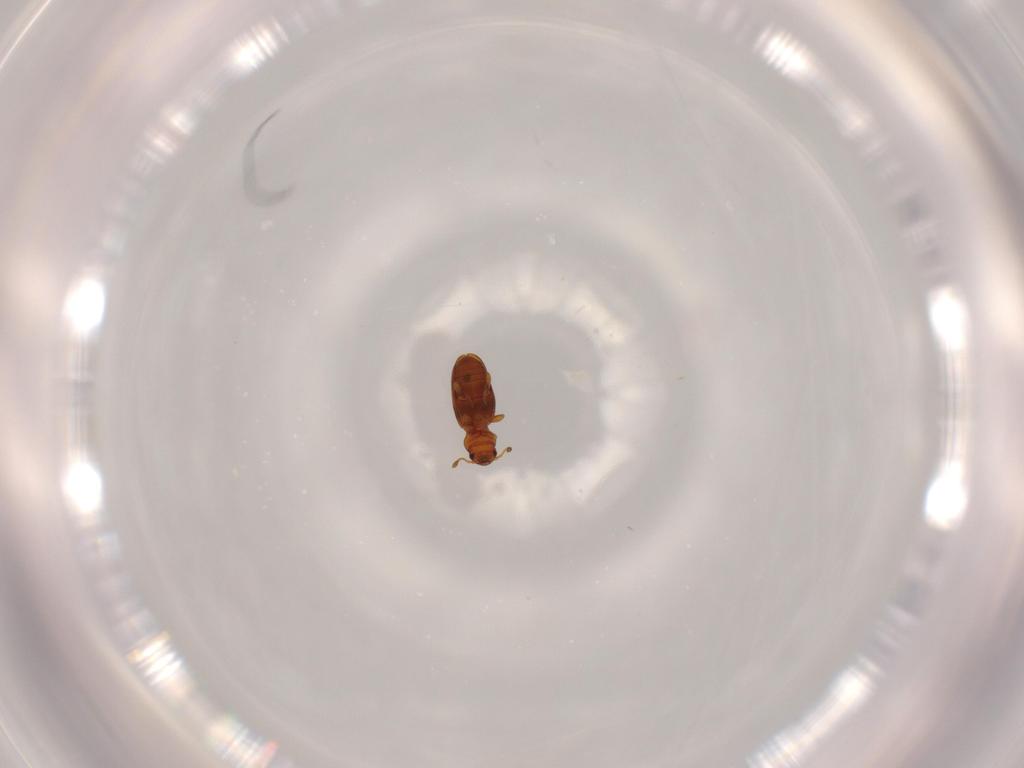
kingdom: Animalia
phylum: Arthropoda
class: Insecta
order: Coleoptera
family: Monotomidae
